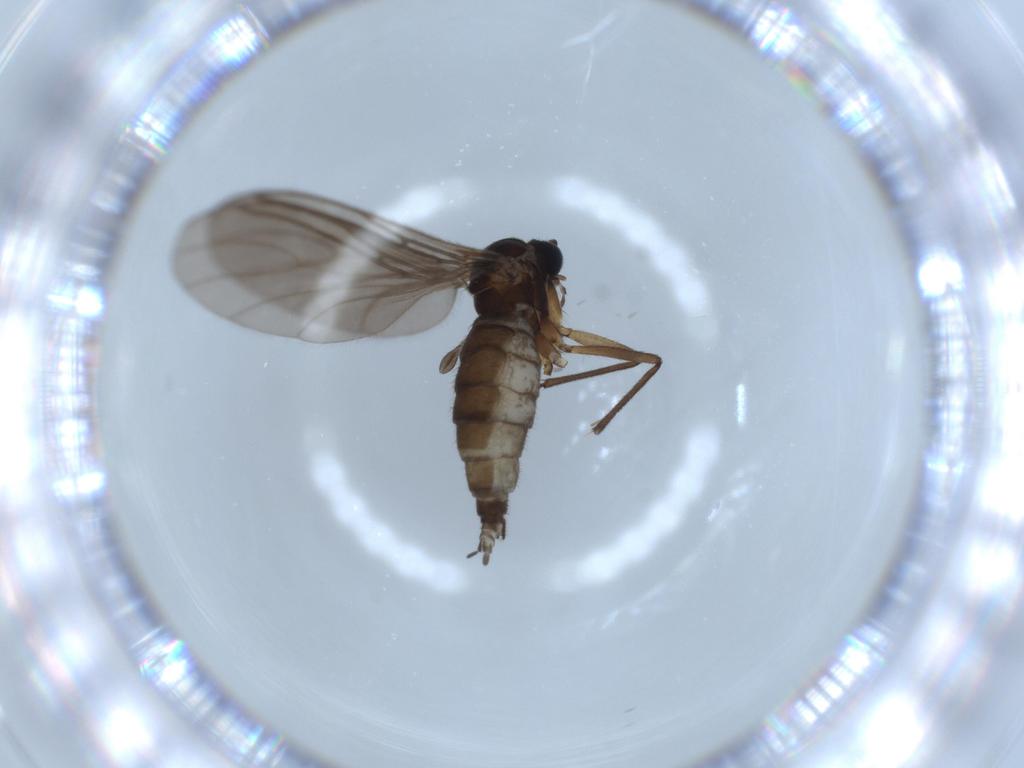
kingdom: Animalia
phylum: Arthropoda
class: Insecta
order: Diptera
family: Sciaridae
